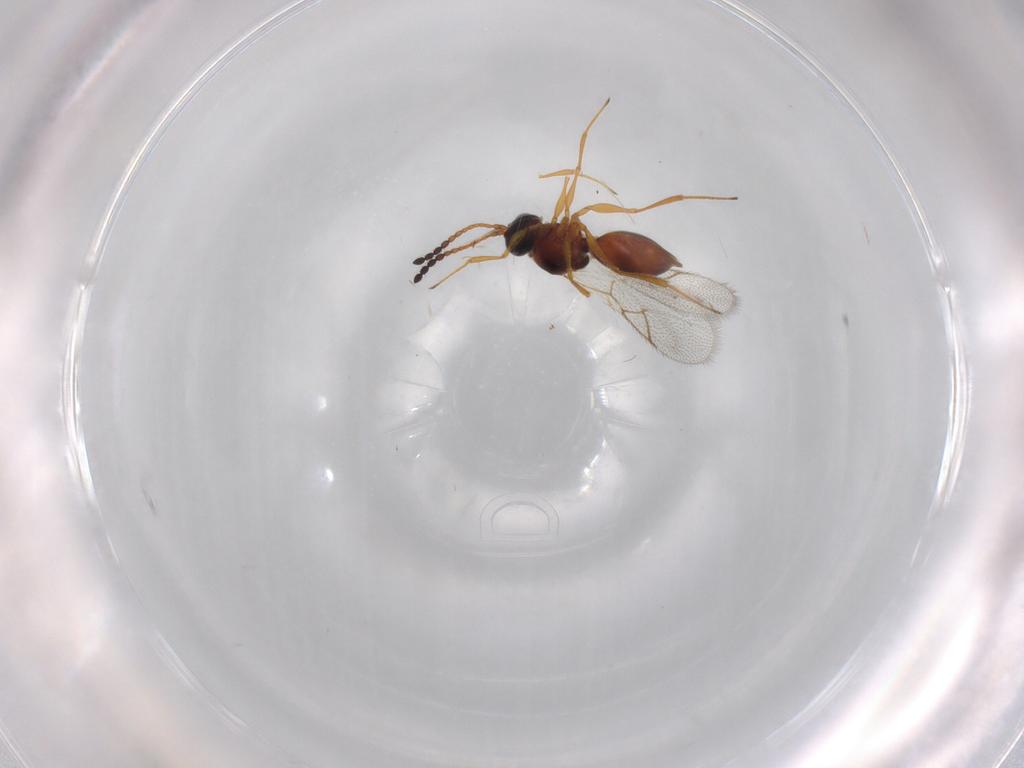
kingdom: Animalia
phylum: Arthropoda
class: Insecta
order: Hymenoptera
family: Figitidae
